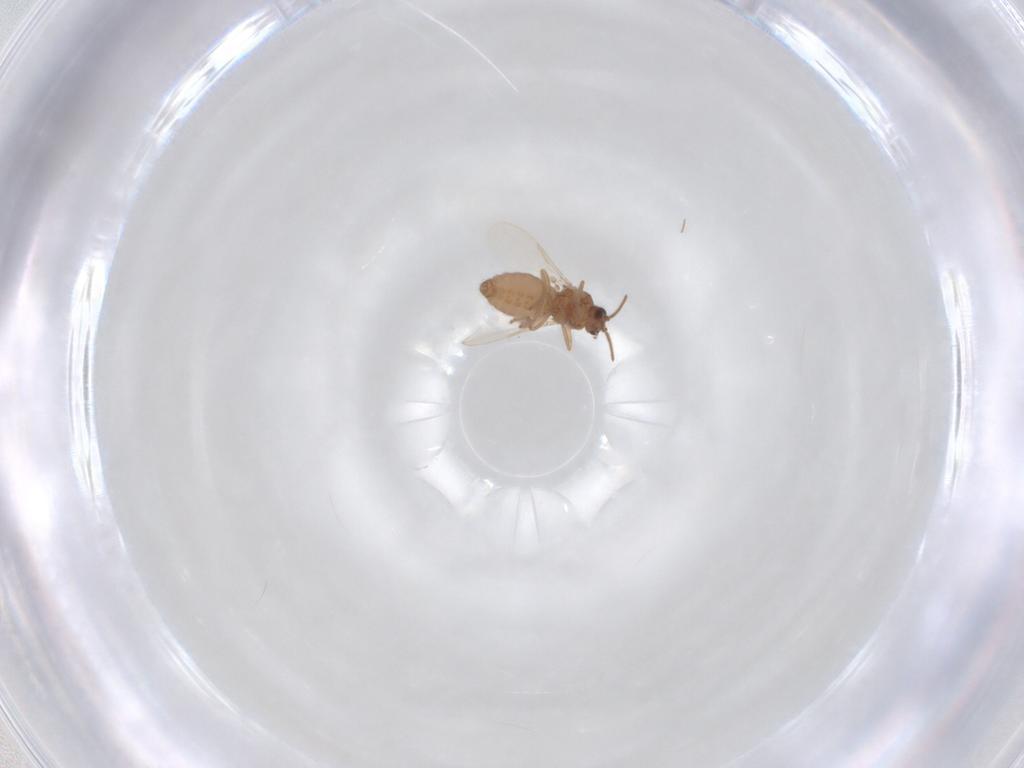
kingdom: Animalia
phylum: Arthropoda
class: Insecta
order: Diptera
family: Ceratopogonidae
